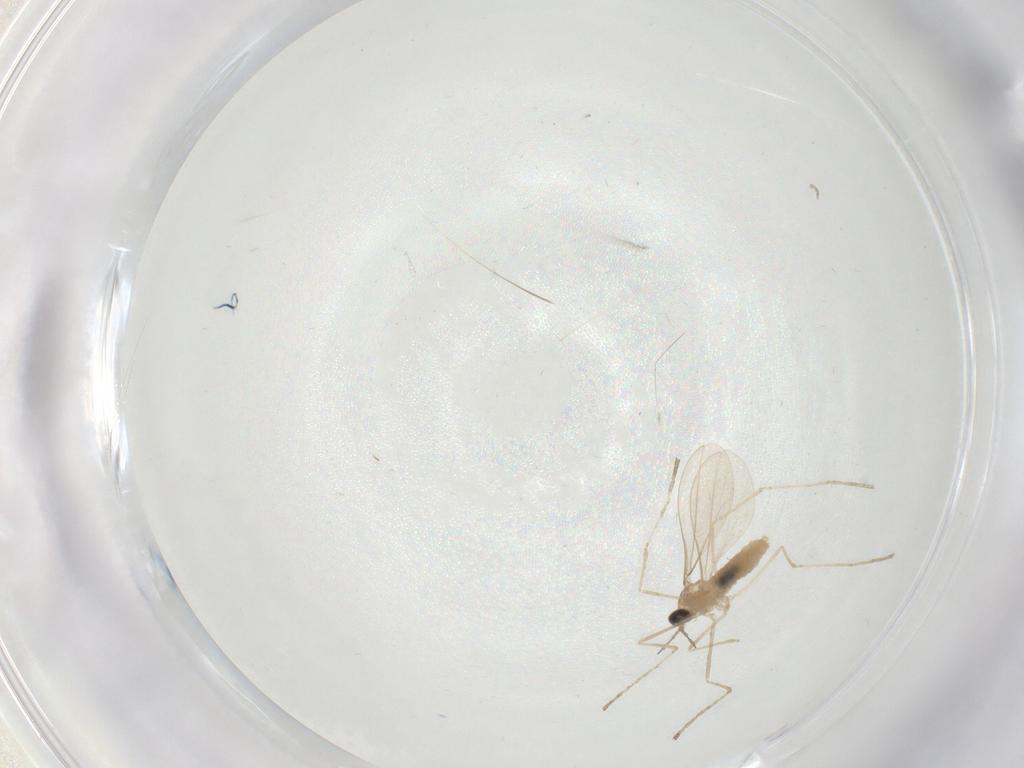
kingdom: Animalia
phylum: Arthropoda
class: Insecta
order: Diptera
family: Cecidomyiidae
